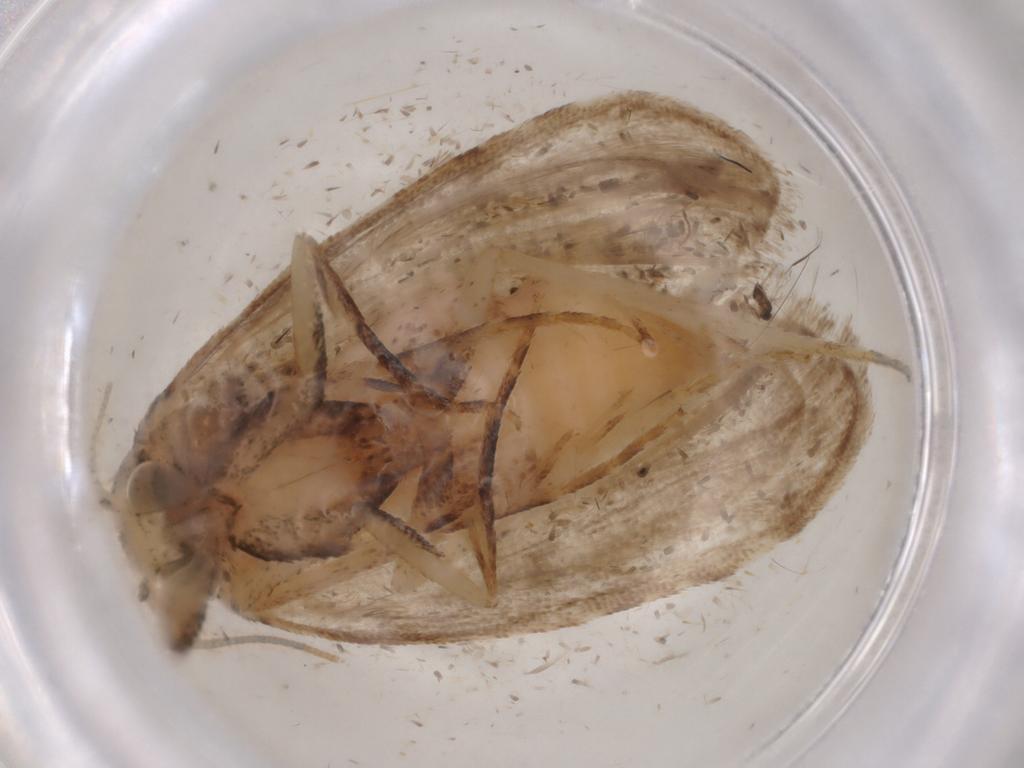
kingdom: Animalia
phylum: Arthropoda
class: Insecta
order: Lepidoptera
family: Nolidae
